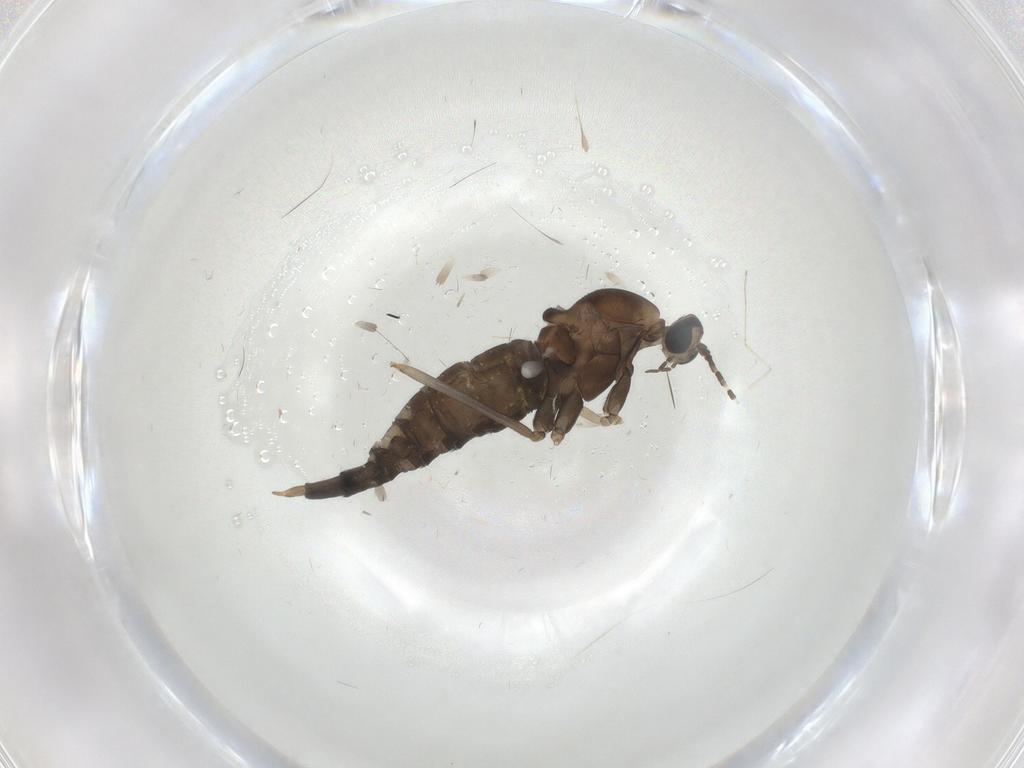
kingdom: Animalia
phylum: Arthropoda
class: Insecta
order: Diptera
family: Cecidomyiidae
